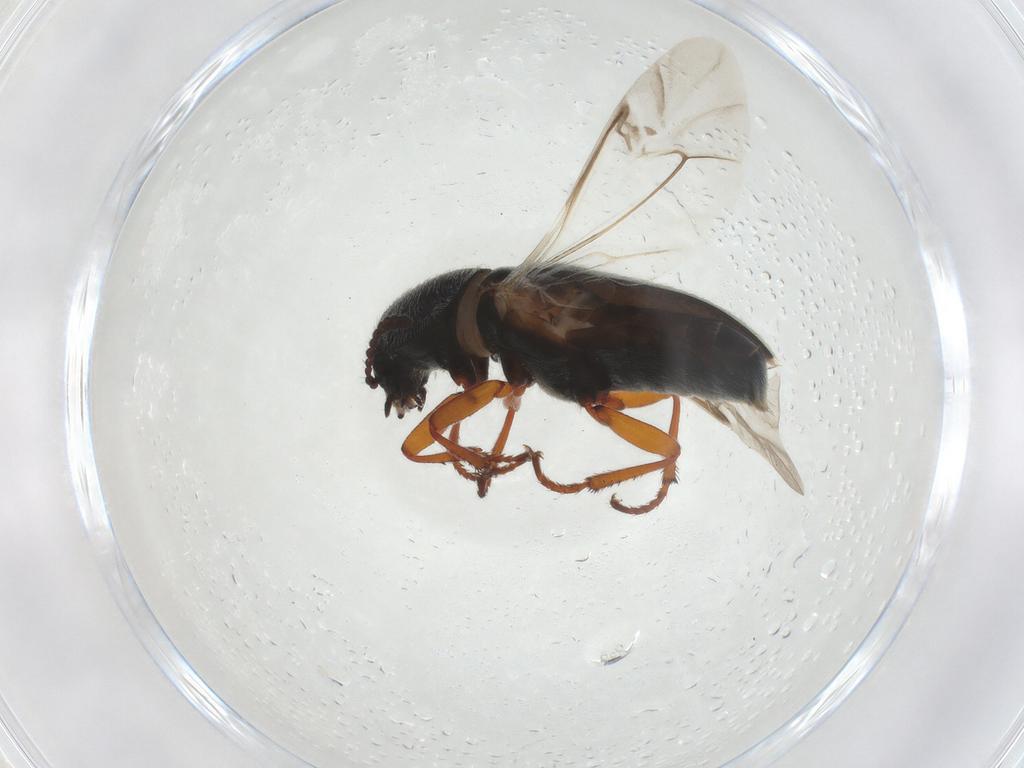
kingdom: Animalia
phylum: Arthropoda
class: Insecta
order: Coleoptera
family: Melyridae
